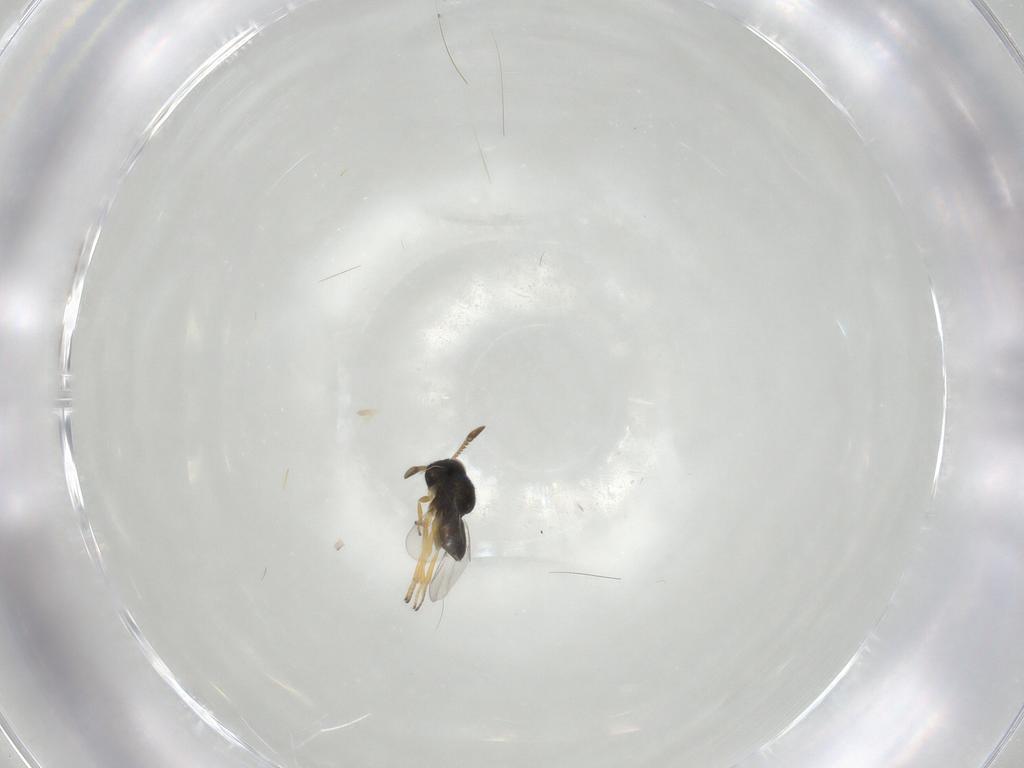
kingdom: Animalia
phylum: Arthropoda
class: Insecta
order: Hymenoptera
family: Encyrtidae
